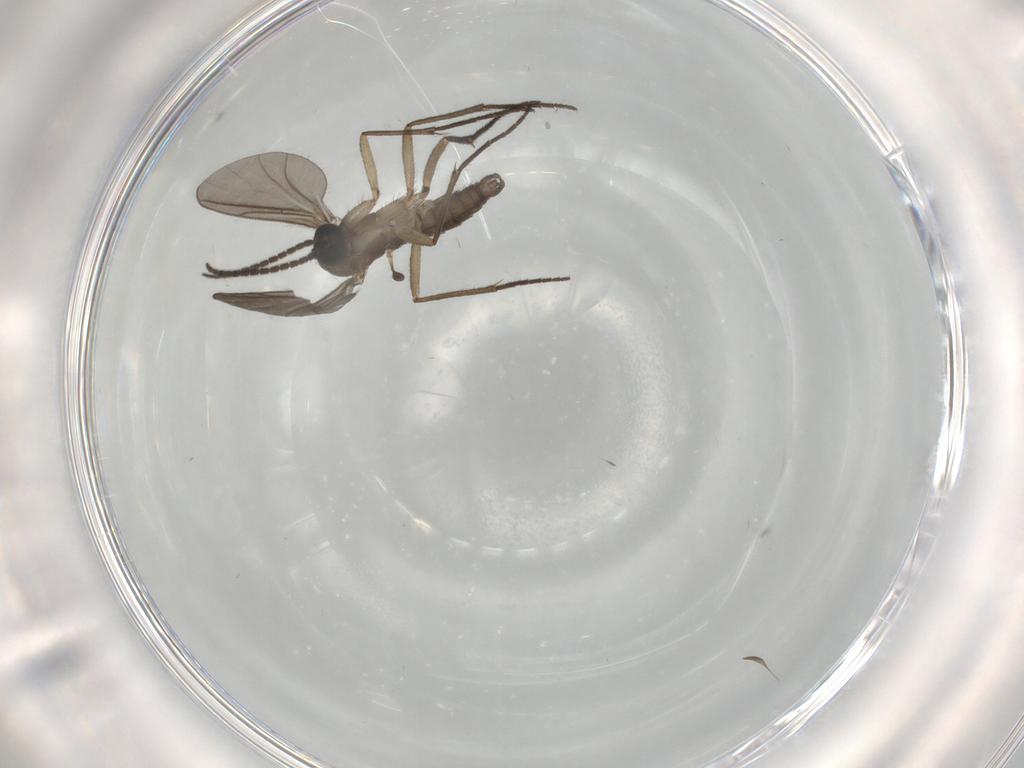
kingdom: Animalia
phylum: Arthropoda
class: Insecta
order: Diptera
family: Sciaridae
